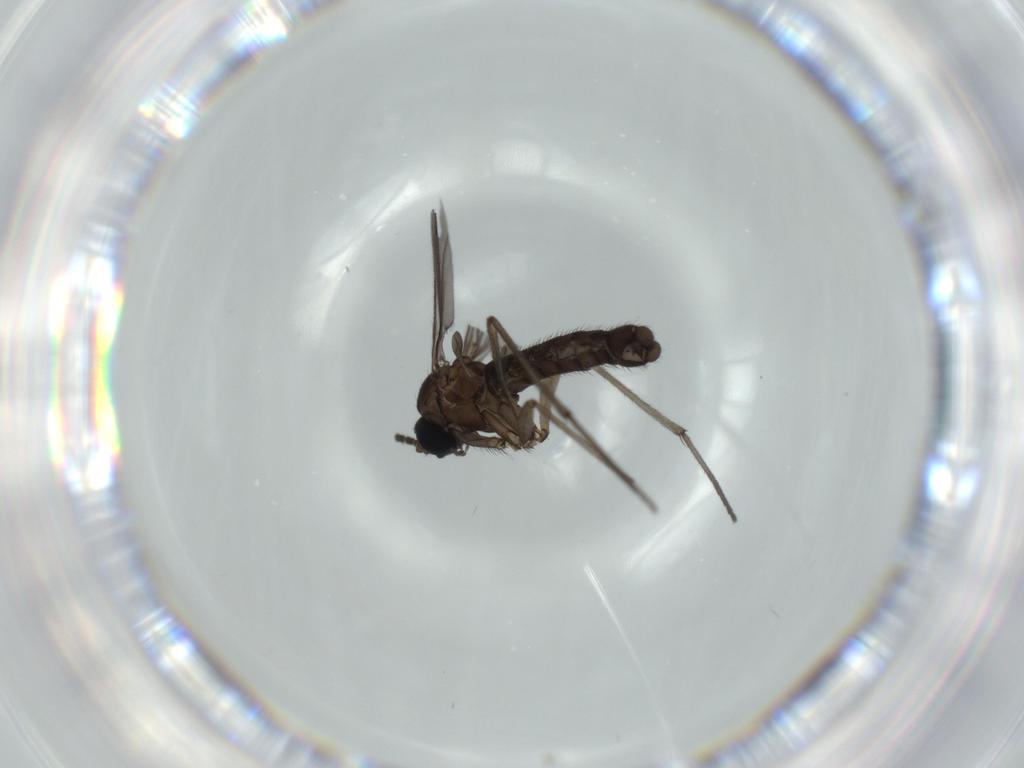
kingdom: Animalia
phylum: Arthropoda
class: Insecta
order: Diptera
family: Sciaridae
